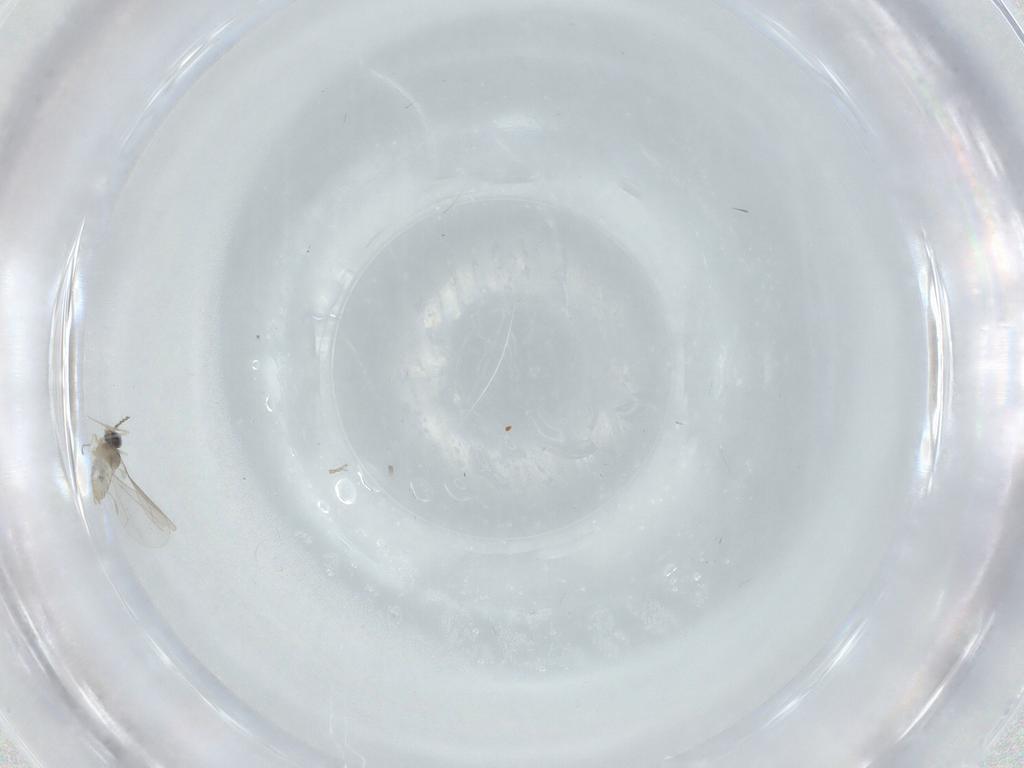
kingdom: Animalia
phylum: Arthropoda
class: Insecta
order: Diptera
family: Cecidomyiidae
